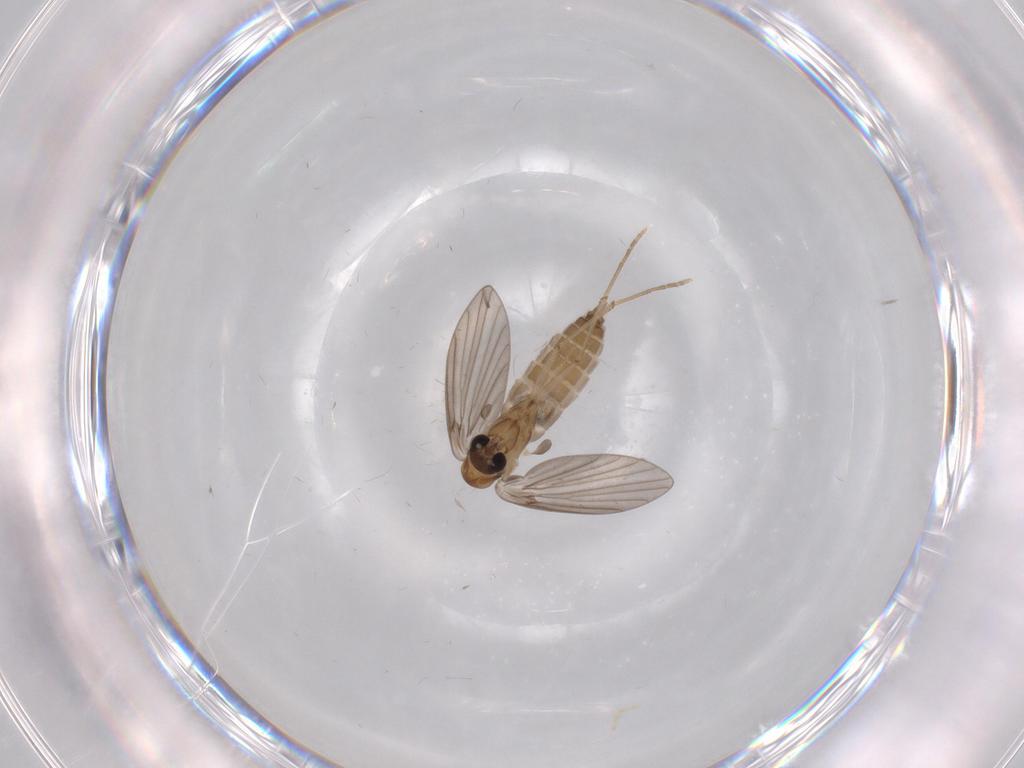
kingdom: Animalia
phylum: Arthropoda
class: Insecta
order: Diptera
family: Limoniidae
